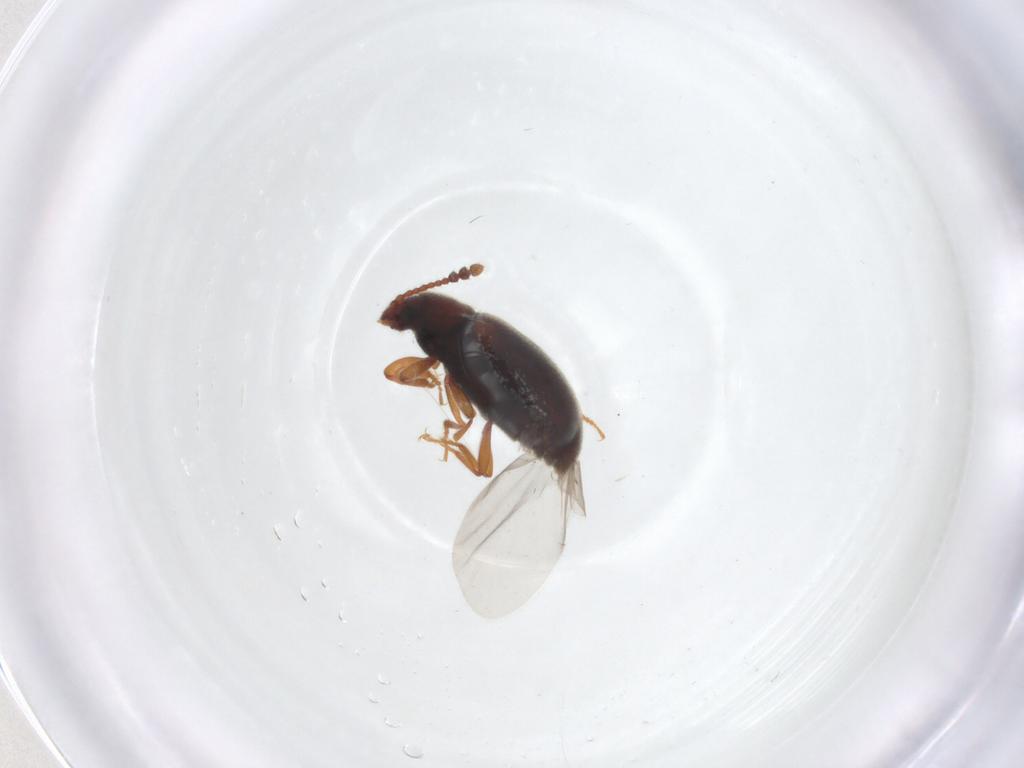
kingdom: Animalia
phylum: Arthropoda
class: Insecta
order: Coleoptera
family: Cryptophagidae
